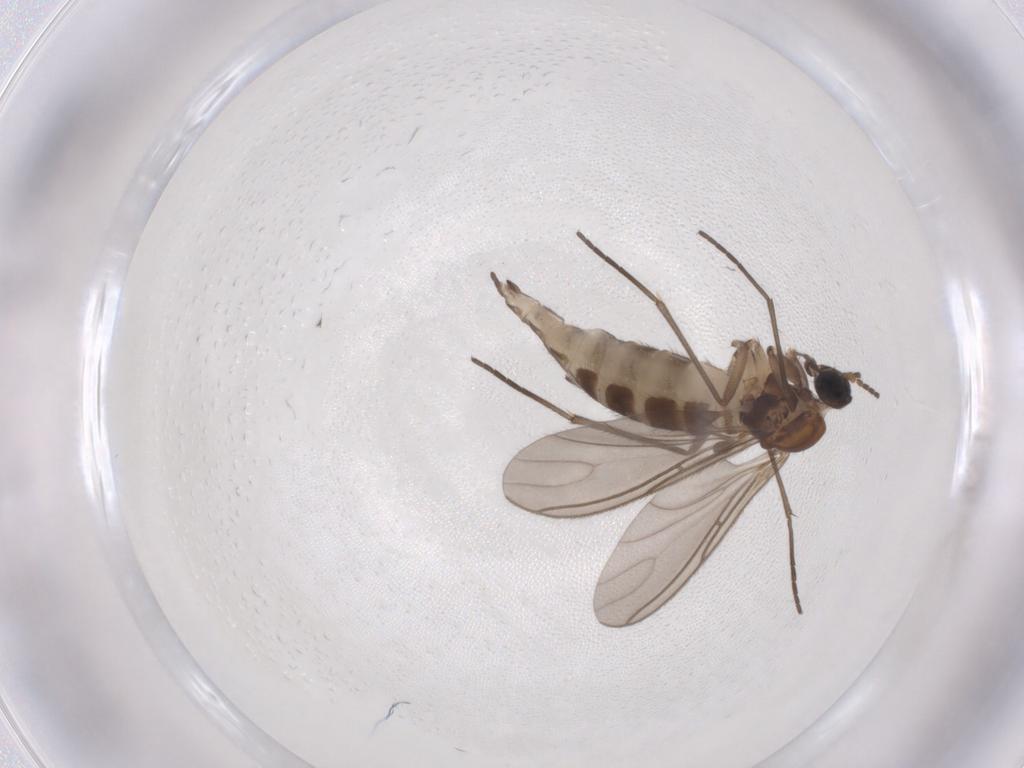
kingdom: Animalia
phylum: Arthropoda
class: Insecta
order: Diptera
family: Sciaridae
